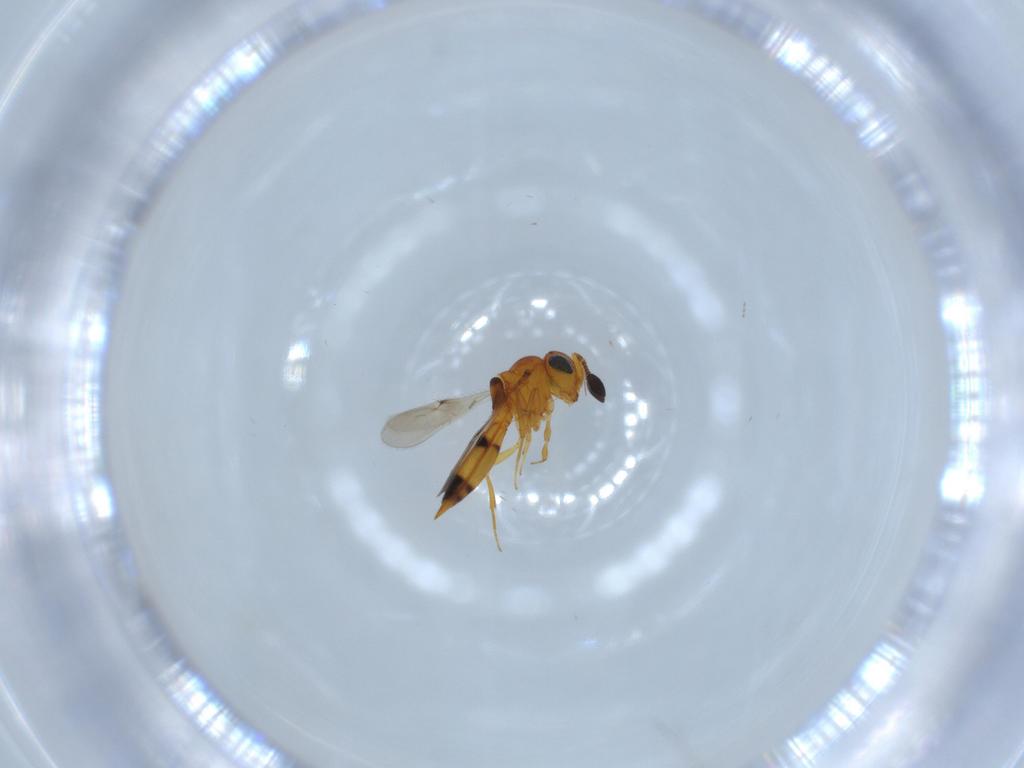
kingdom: Animalia
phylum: Arthropoda
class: Insecta
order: Hymenoptera
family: Scelionidae
